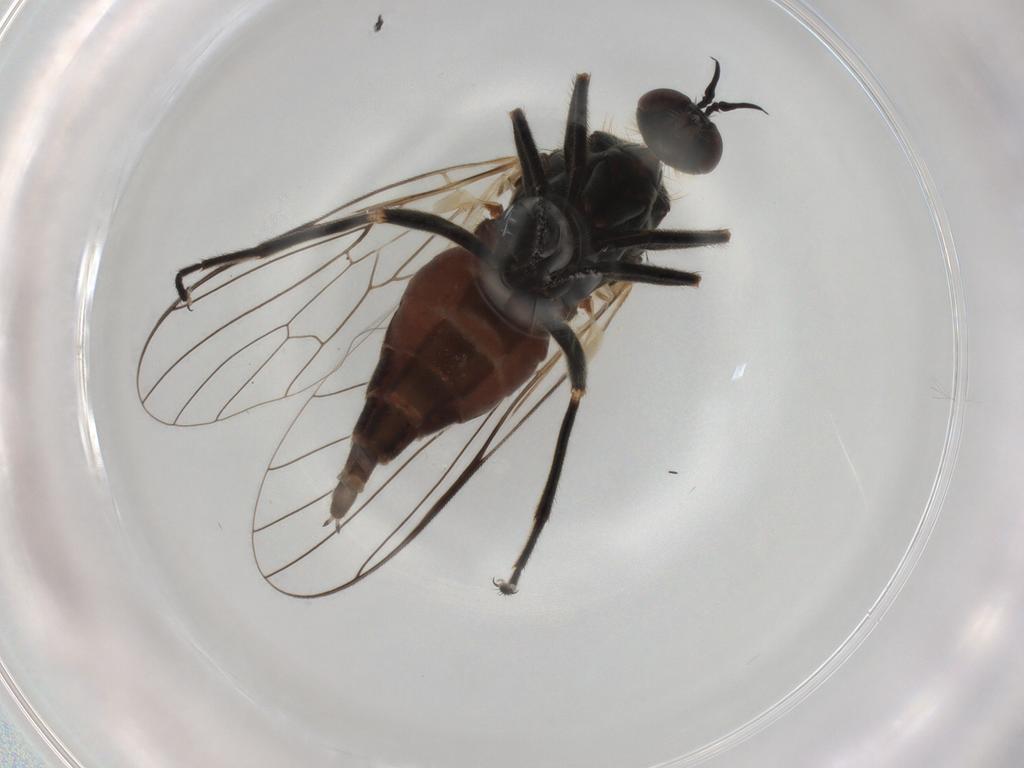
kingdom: Animalia
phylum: Arthropoda
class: Insecta
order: Diptera
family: Empididae
